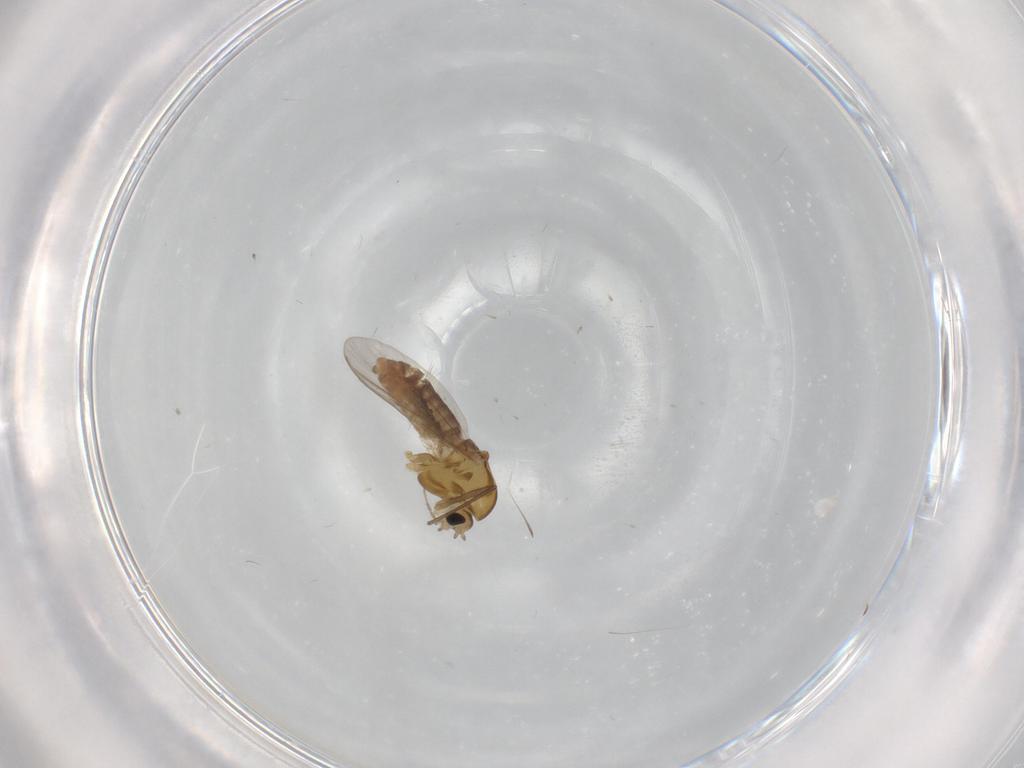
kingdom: Animalia
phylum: Arthropoda
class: Insecta
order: Diptera
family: Chironomidae
